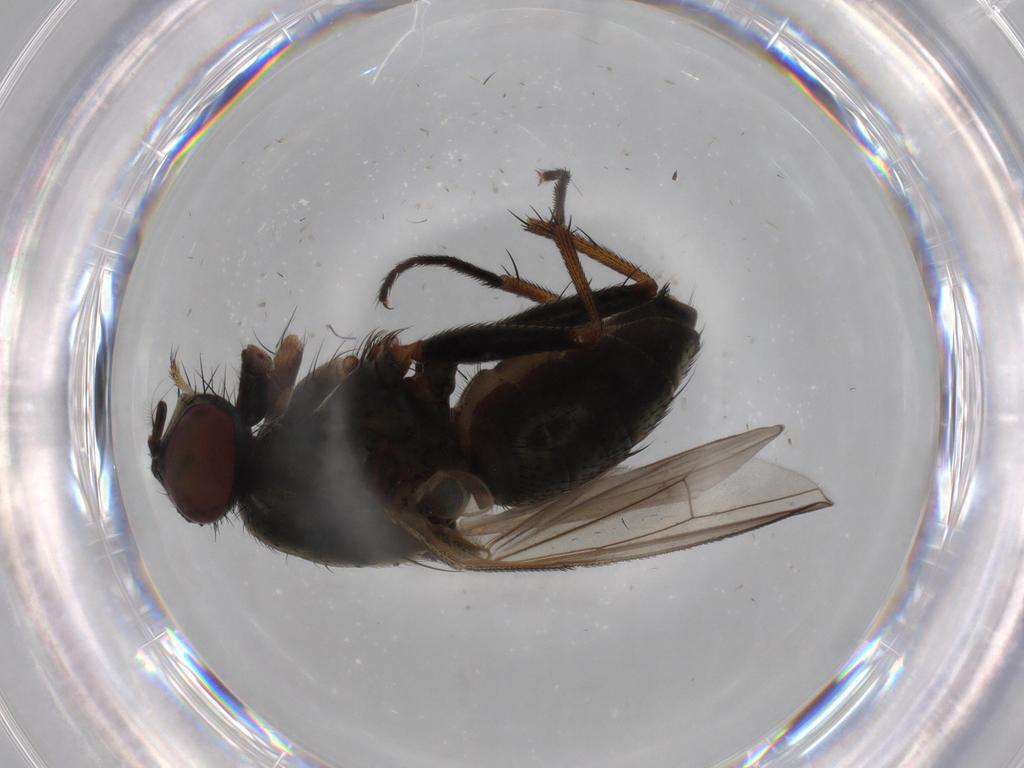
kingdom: Animalia
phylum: Arthropoda
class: Insecta
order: Diptera
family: Muscidae
